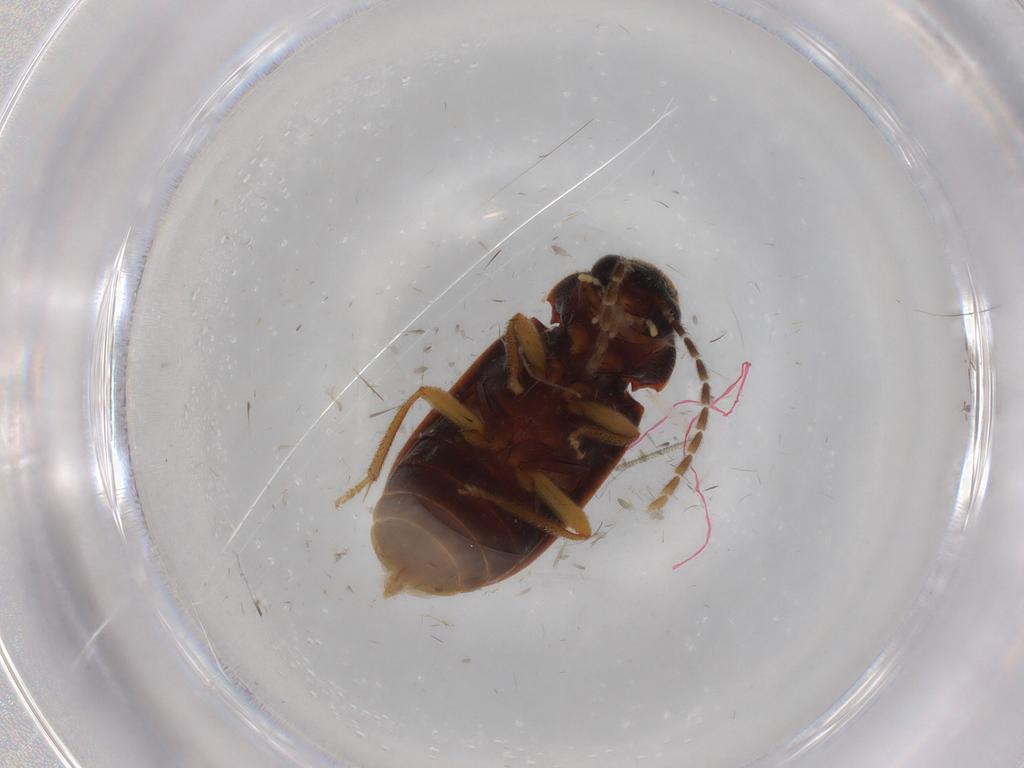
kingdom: Animalia
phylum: Arthropoda
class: Insecta
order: Coleoptera
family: Ptilodactylidae
